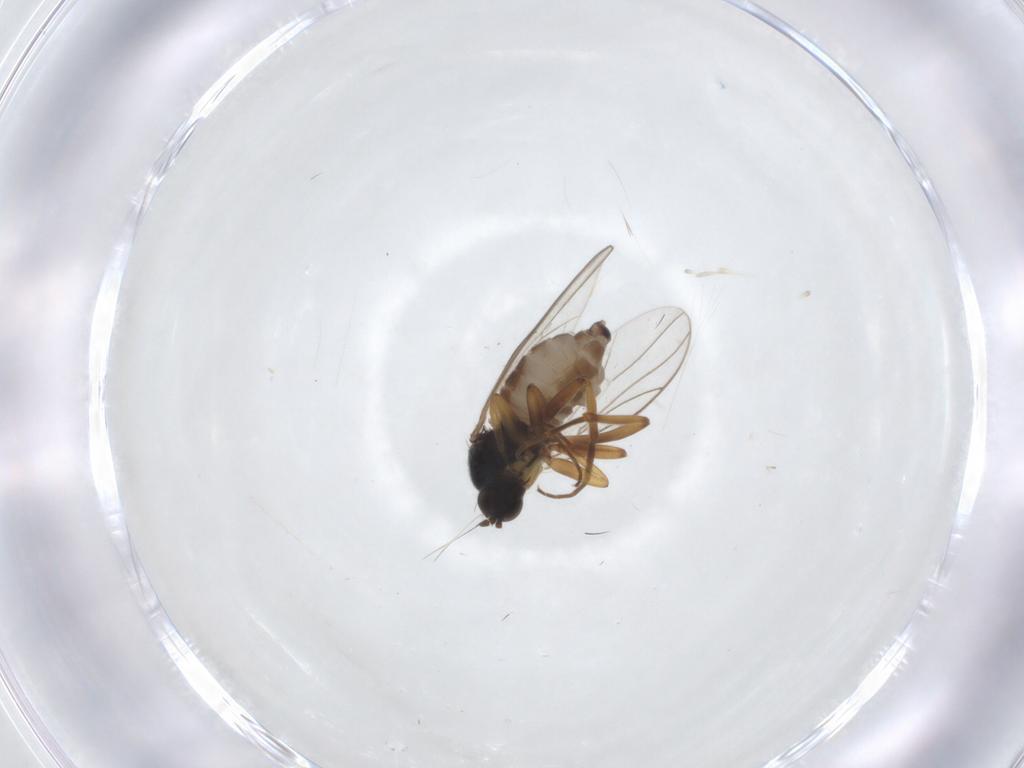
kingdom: Animalia
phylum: Arthropoda
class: Insecta
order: Diptera
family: Hybotidae
